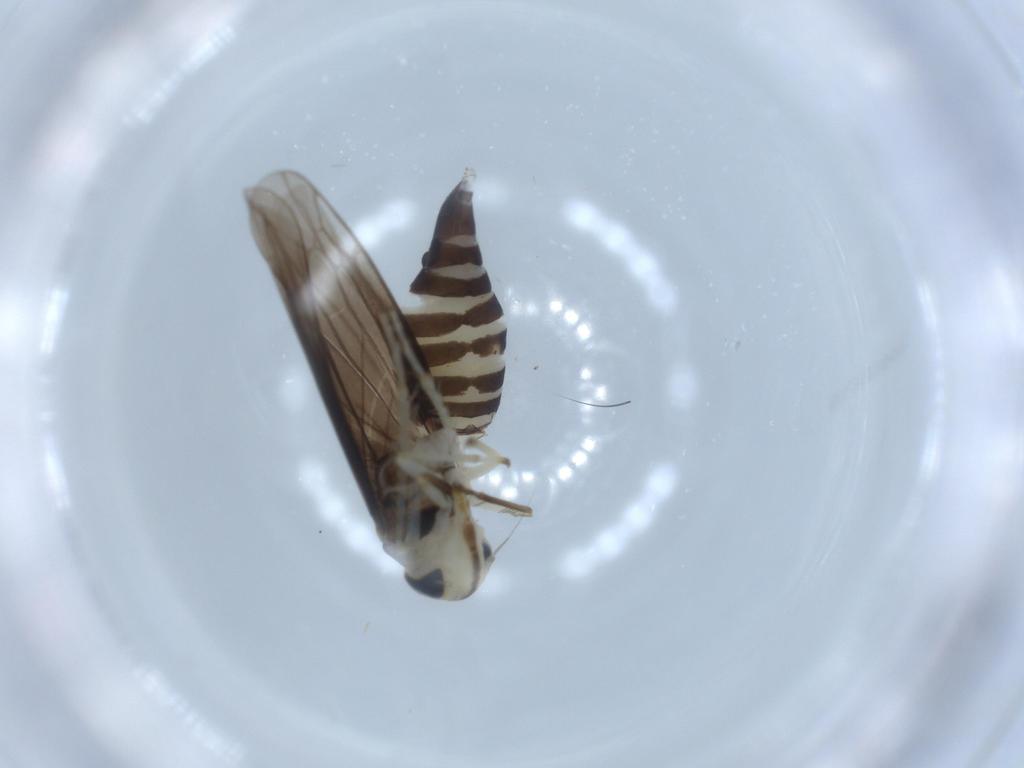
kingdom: Animalia
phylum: Arthropoda
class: Insecta
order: Hemiptera
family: Cicadellidae
